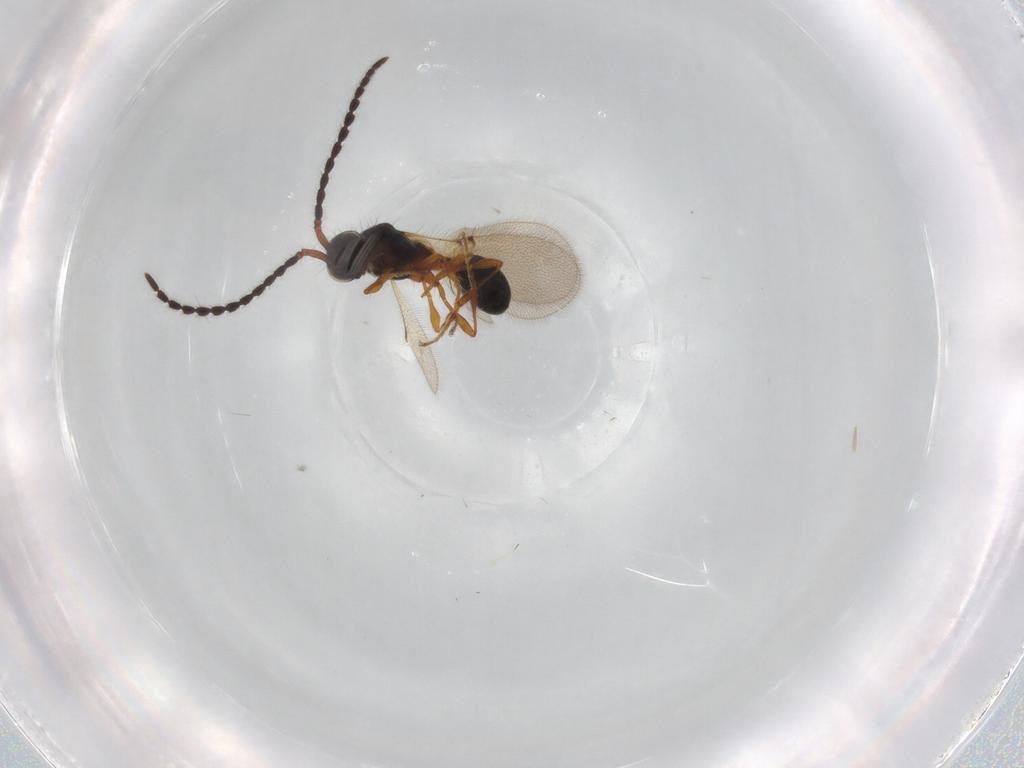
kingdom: Animalia
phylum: Arthropoda
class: Insecta
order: Hymenoptera
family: Diapriidae
